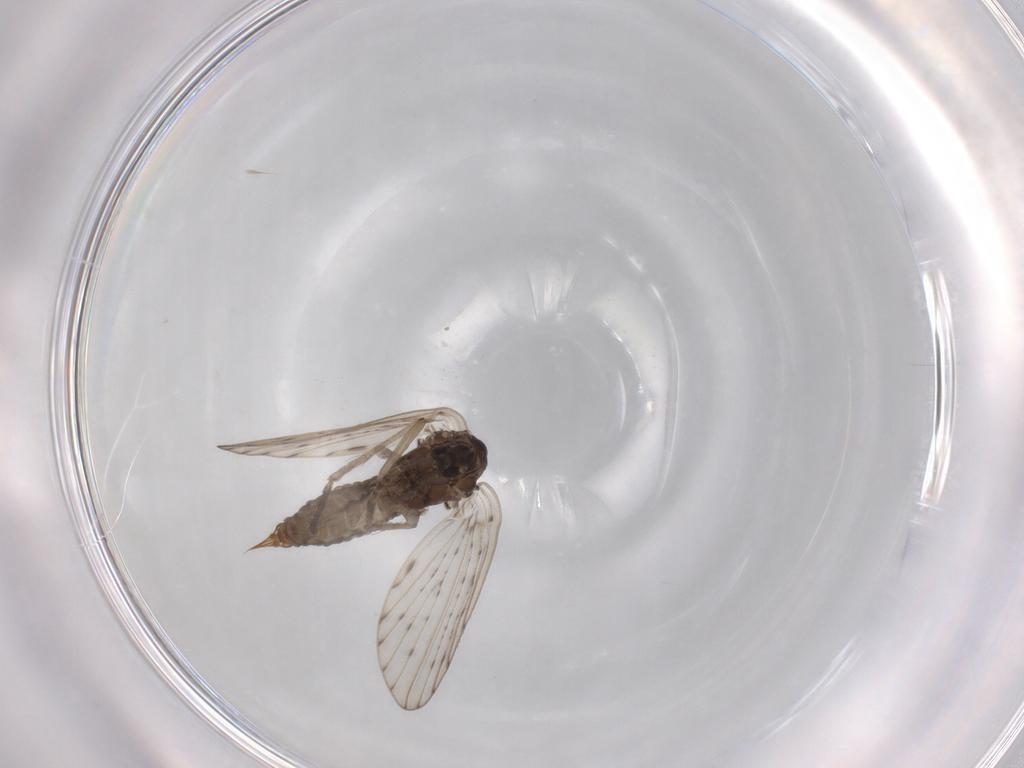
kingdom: Animalia
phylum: Arthropoda
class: Insecta
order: Diptera
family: Psychodidae
